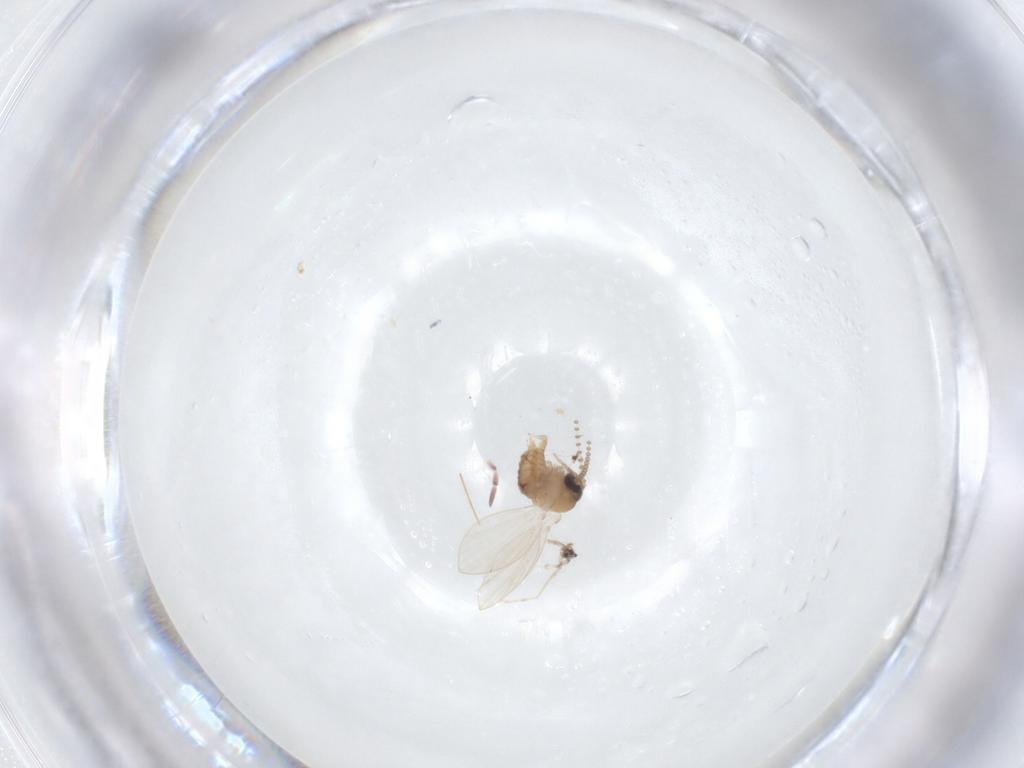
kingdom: Animalia
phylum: Arthropoda
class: Insecta
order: Diptera
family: Psychodidae
